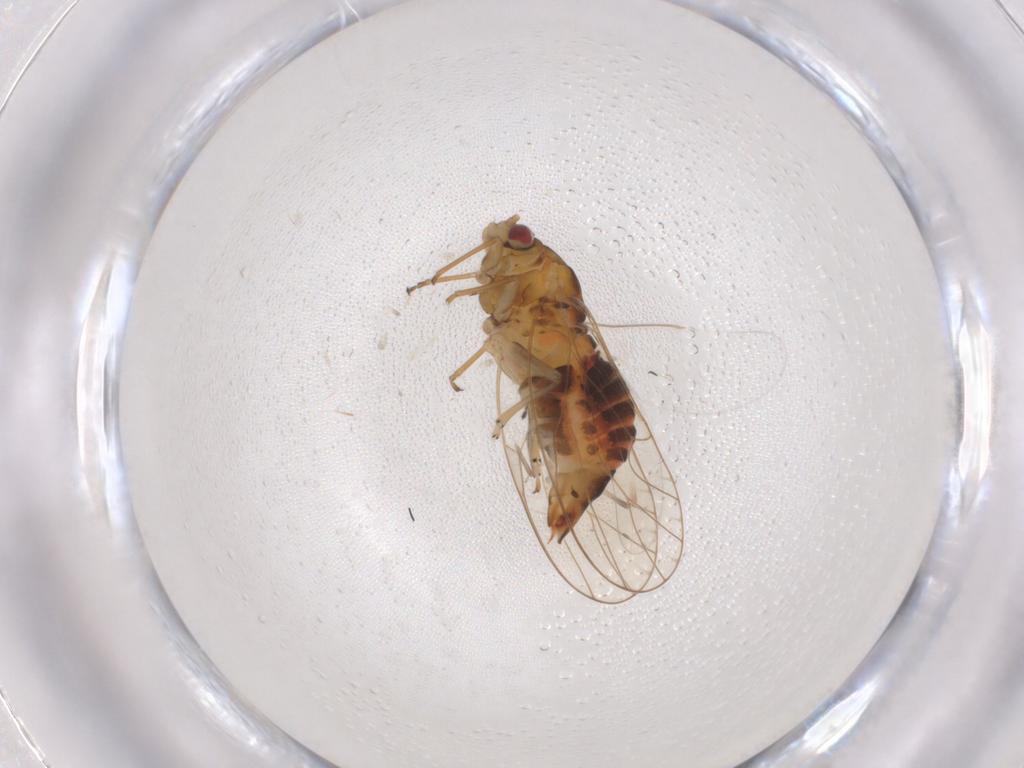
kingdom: Animalia
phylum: Arthropoda
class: Insecta
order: Hemiptera
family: Psyllidae
